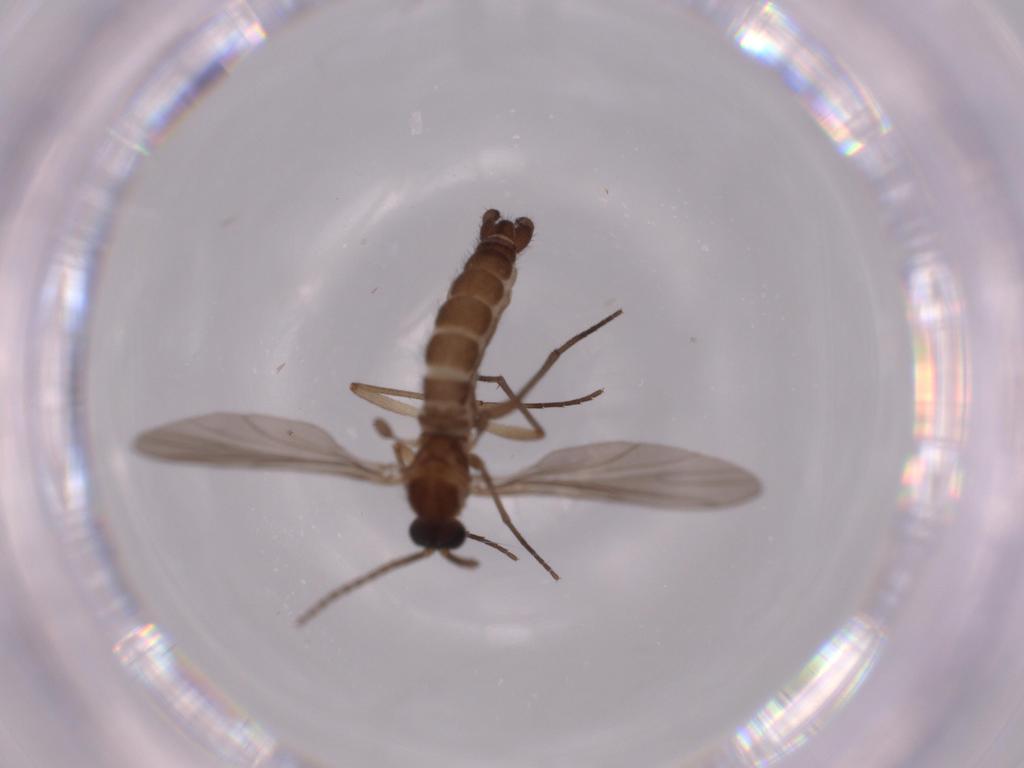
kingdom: Animalia
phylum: Arthropoda
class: Insecta
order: Diptera
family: Sciaridae
